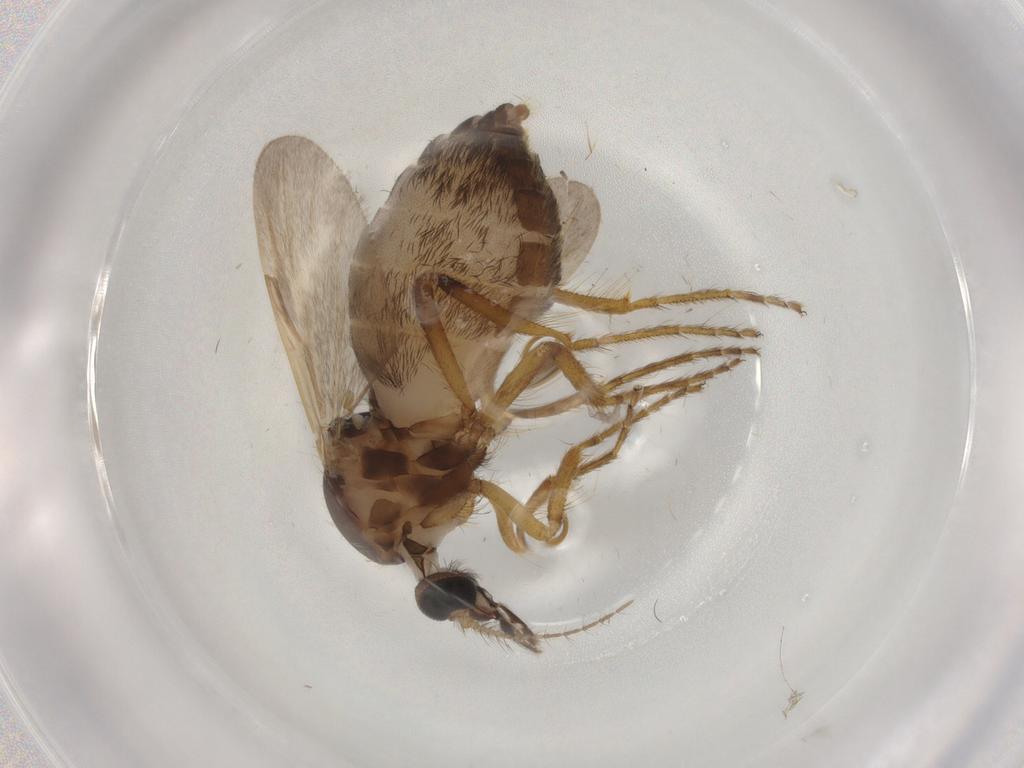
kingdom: Animalia
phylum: Arthropoda
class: Insecta
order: Diptera
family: Ceratopogonidae
